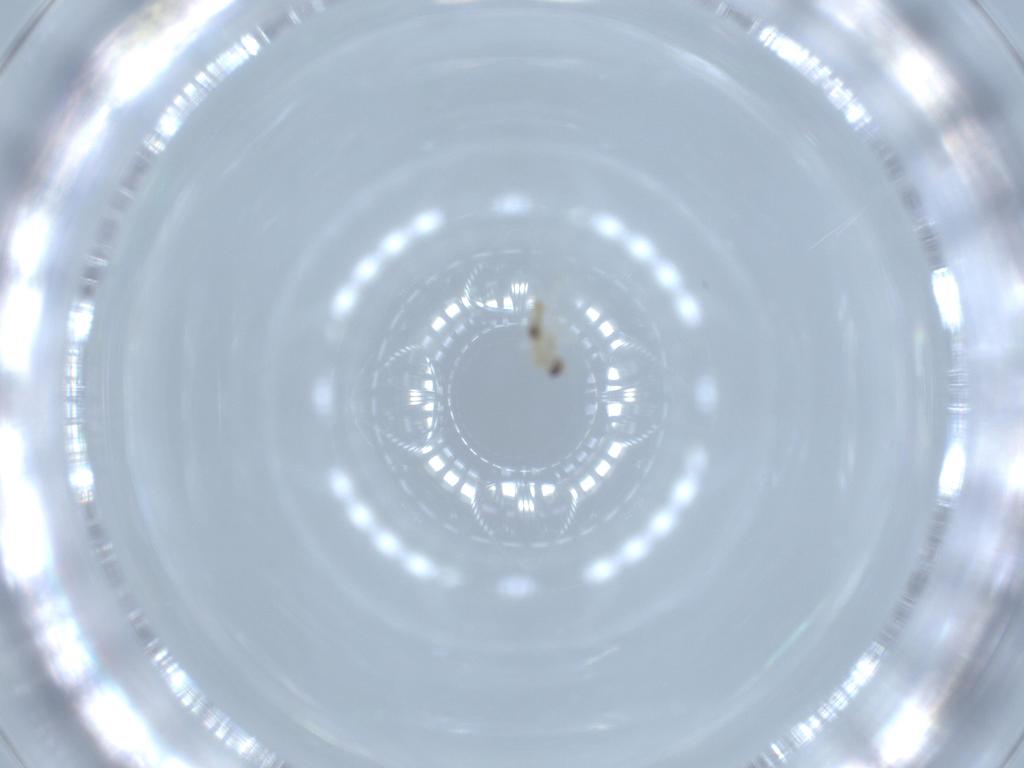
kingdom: Animalia
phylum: Arthropoda
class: Insecta
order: Diptera
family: Cecidomyiidae
